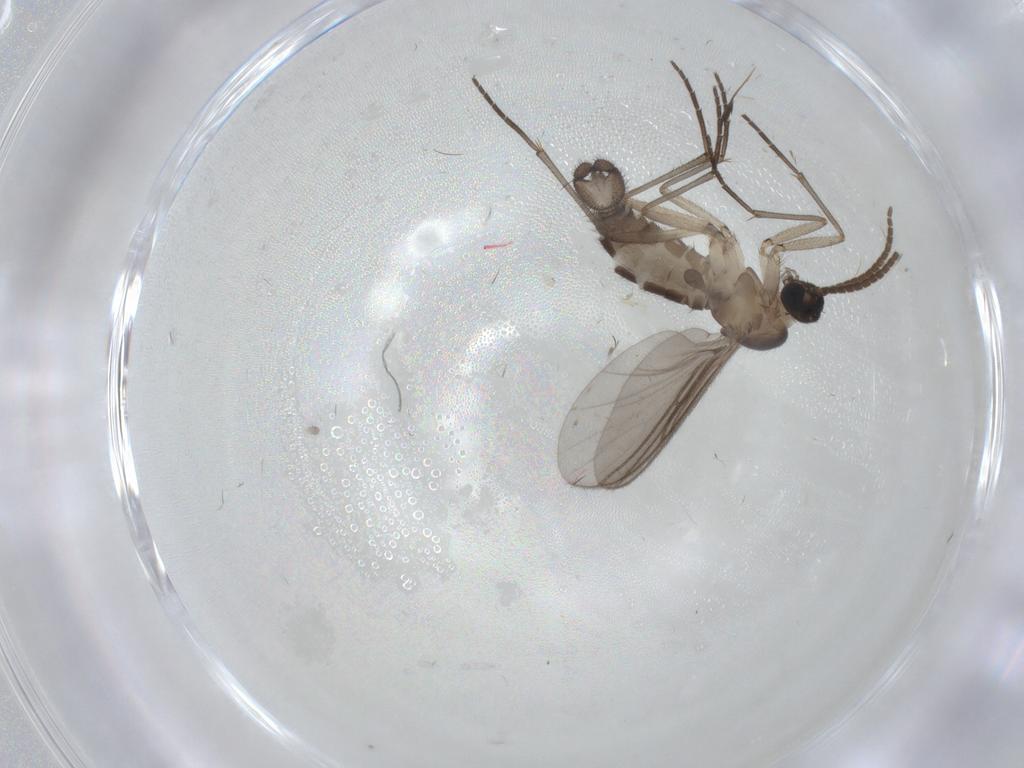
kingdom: Animalia
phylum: Arthropoda
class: Insecta
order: Diptera
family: Sciaridae
